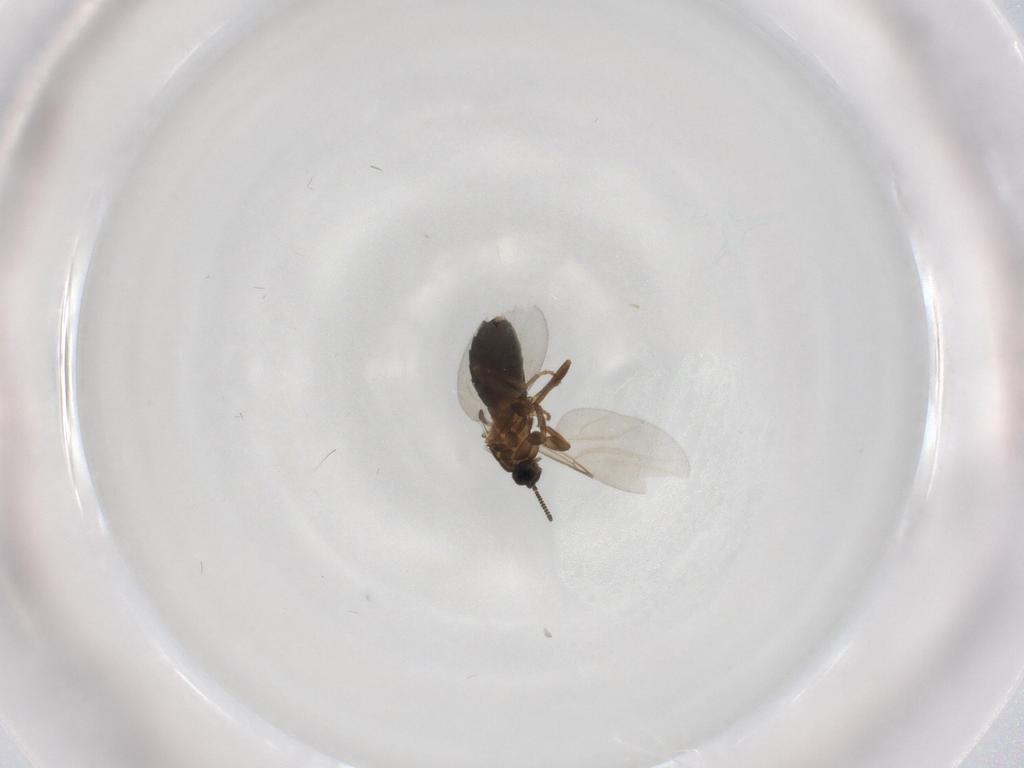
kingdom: Animalia
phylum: Arthropoda
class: Insecta
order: Diptera
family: Scatopsidae
